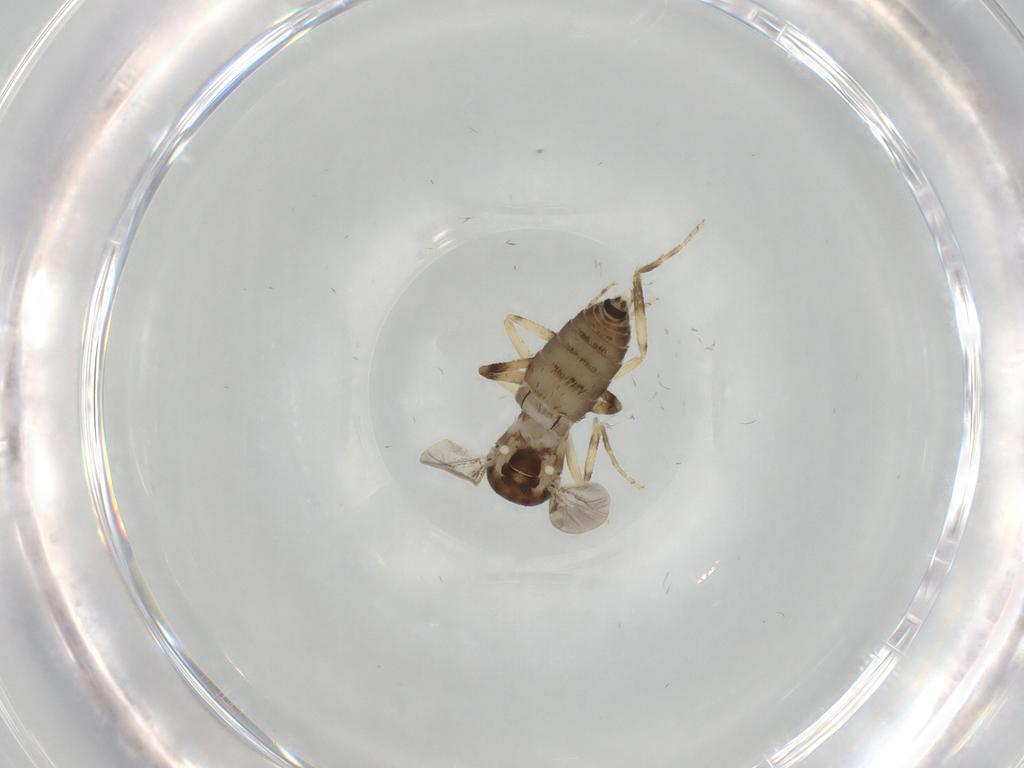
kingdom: Animalia
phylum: Arthropoda
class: Insecta
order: Diptera
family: Ceratopogonidae
